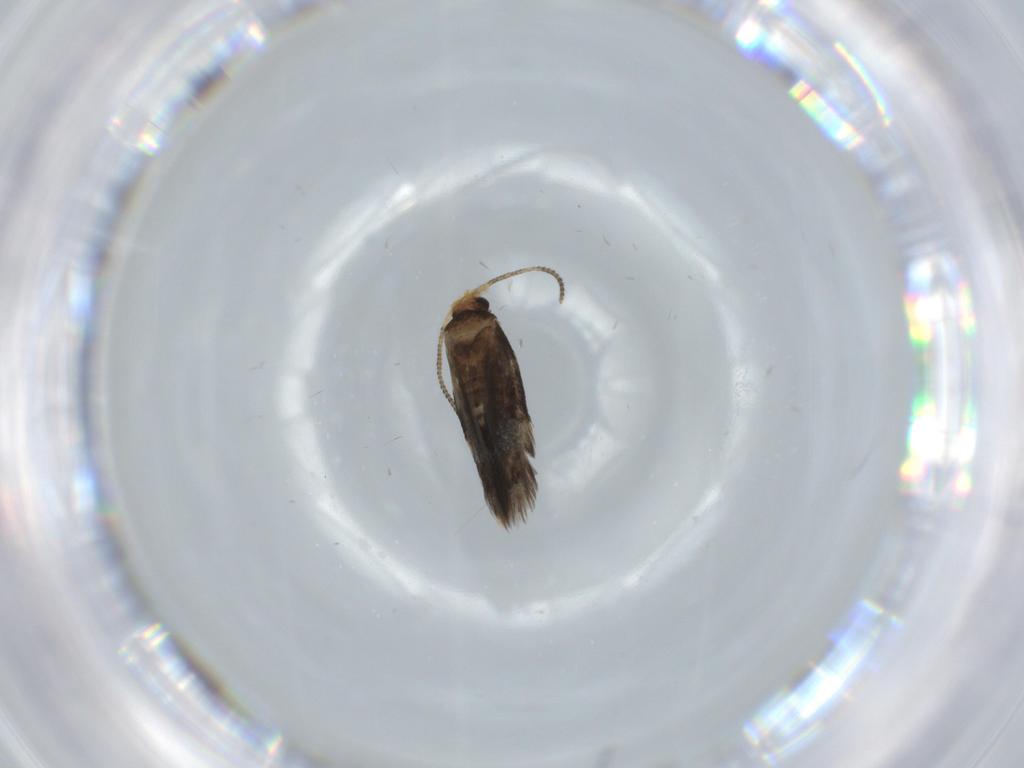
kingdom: Animalia
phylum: Arthropoda
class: Insecta
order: Lepidoptera
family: Nepticulidae
